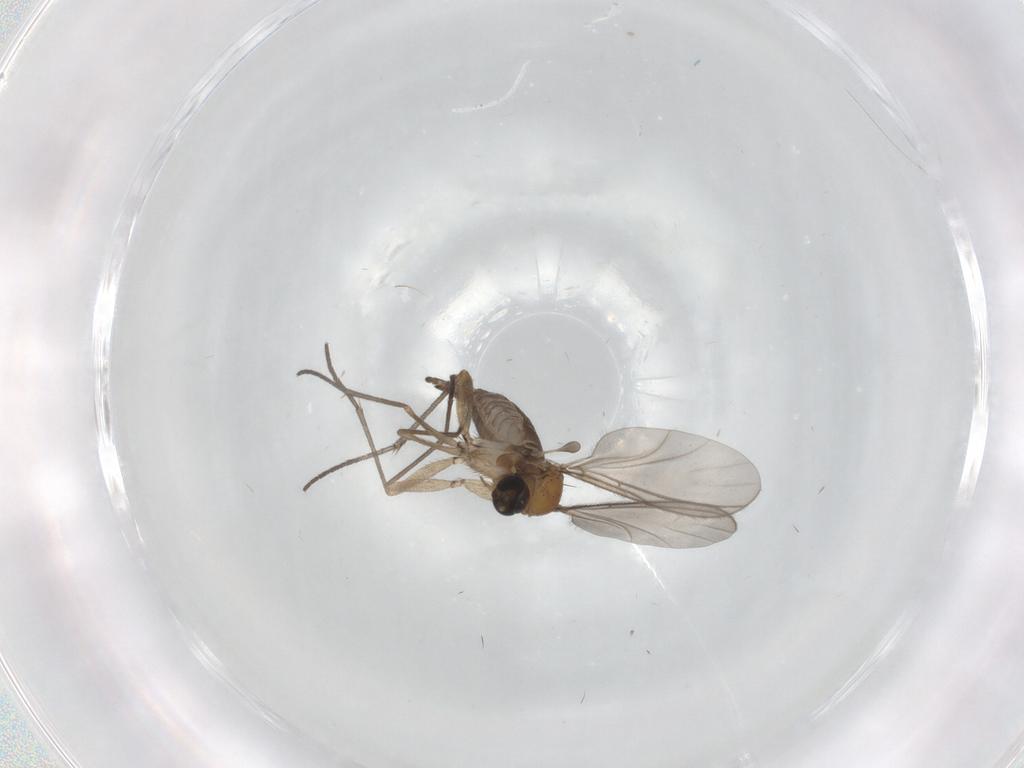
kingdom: Animalia
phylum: Arthropoda
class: Insecta
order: Diptera
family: Sciaridae
